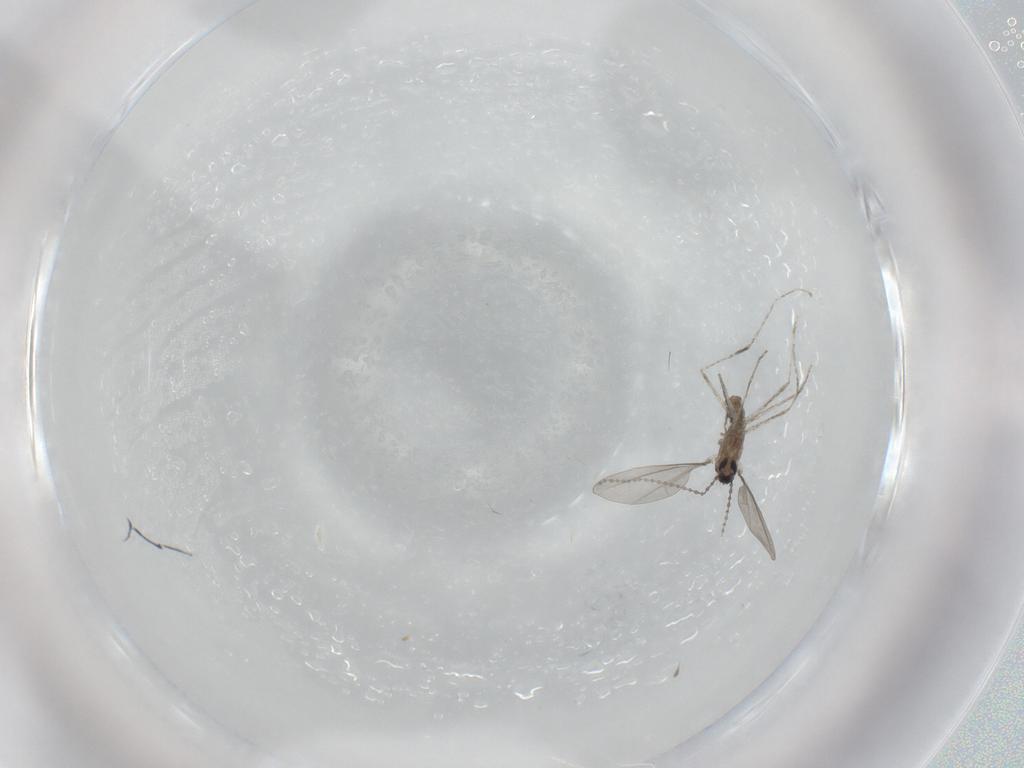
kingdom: Animalia
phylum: Arthropoda
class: Insecta
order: Diptera
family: Cecidomyiidae
